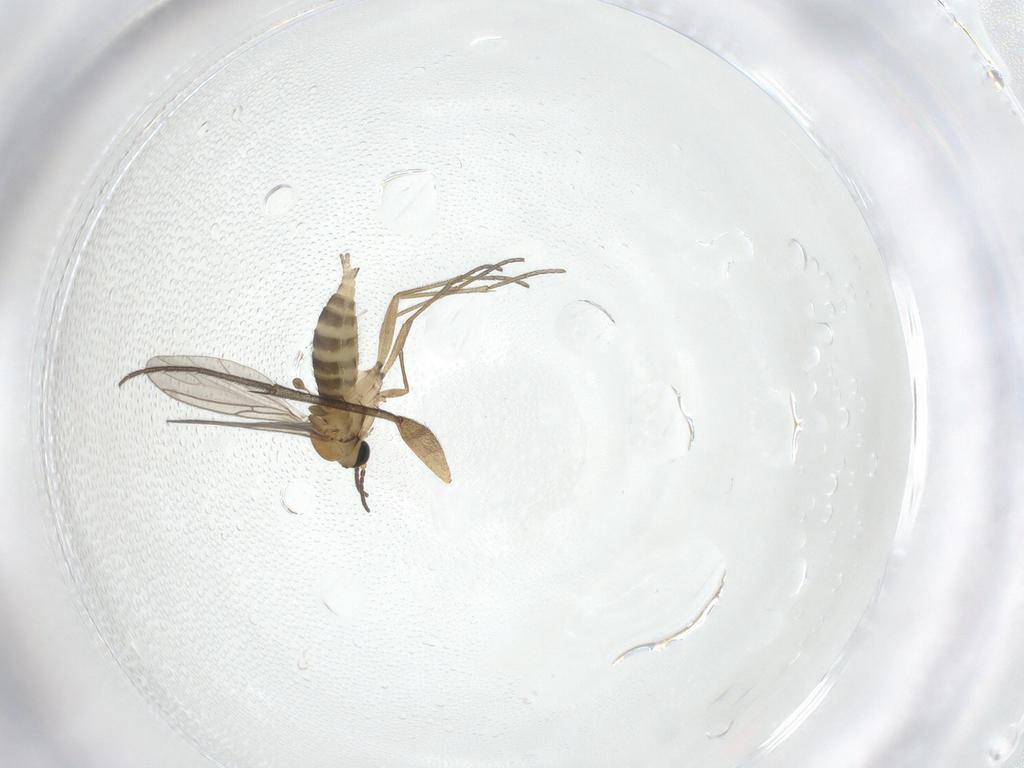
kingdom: Animalia
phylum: Arthropoda
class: Insecta
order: Diptera
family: Sciaridae
